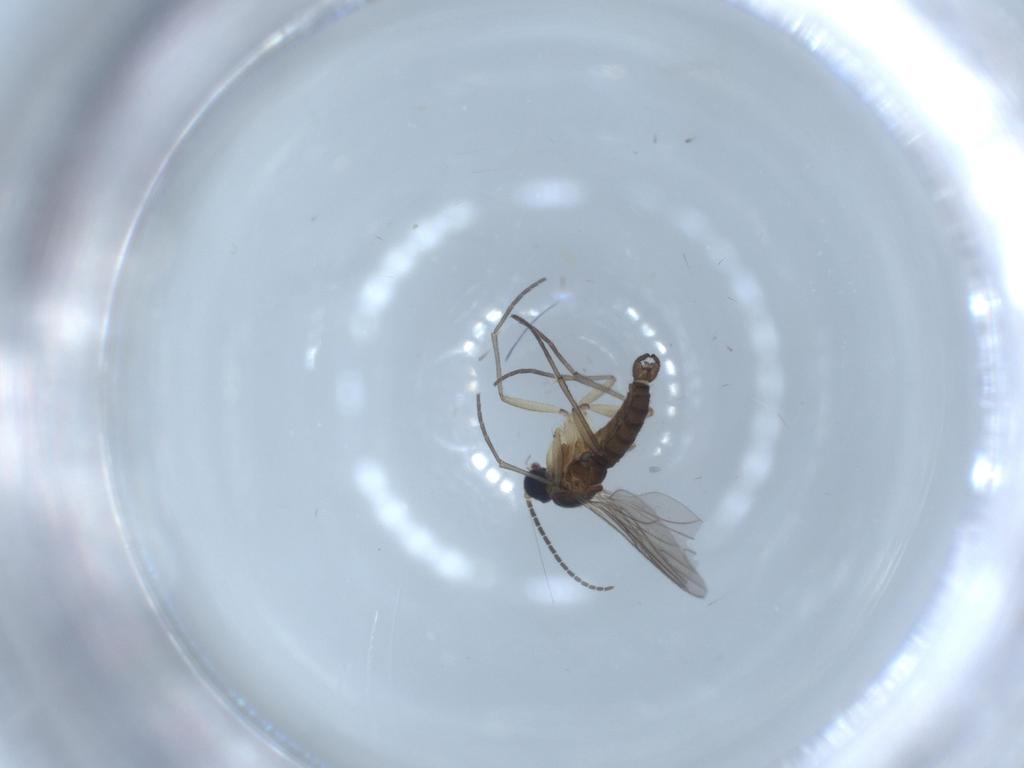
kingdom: Animalia
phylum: Arthropoda
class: Insecta
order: Diptera
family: Sciaridae
